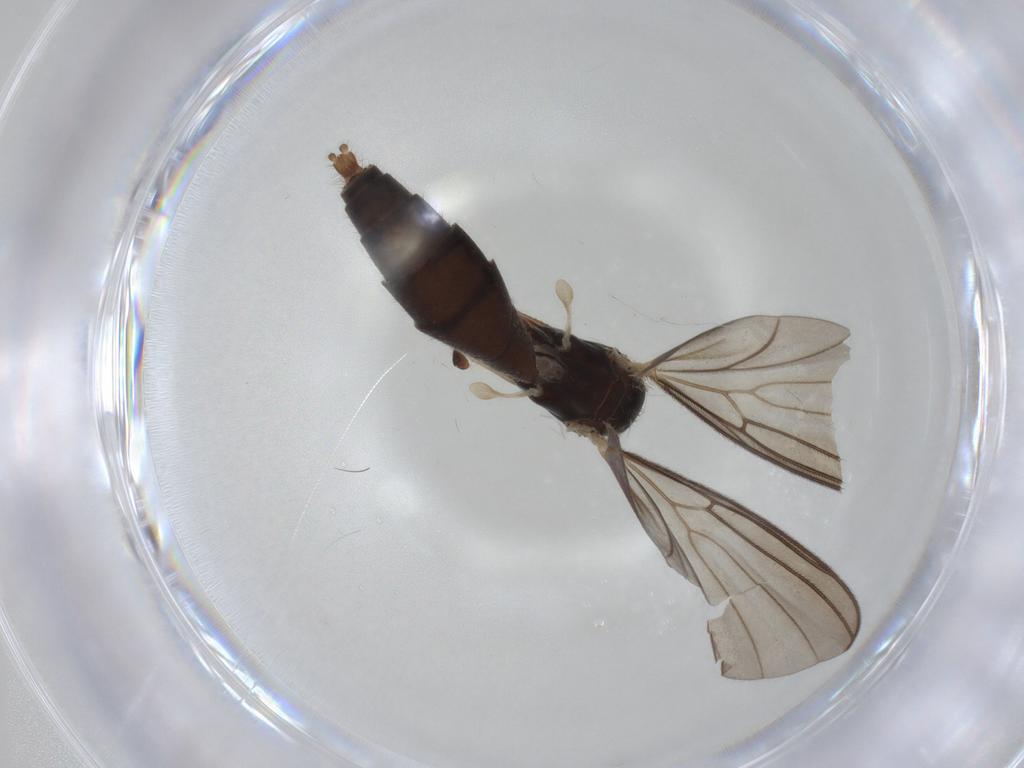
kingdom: Animalia
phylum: Arthropoda
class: Insecta
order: Diptera
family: Sciaridae
